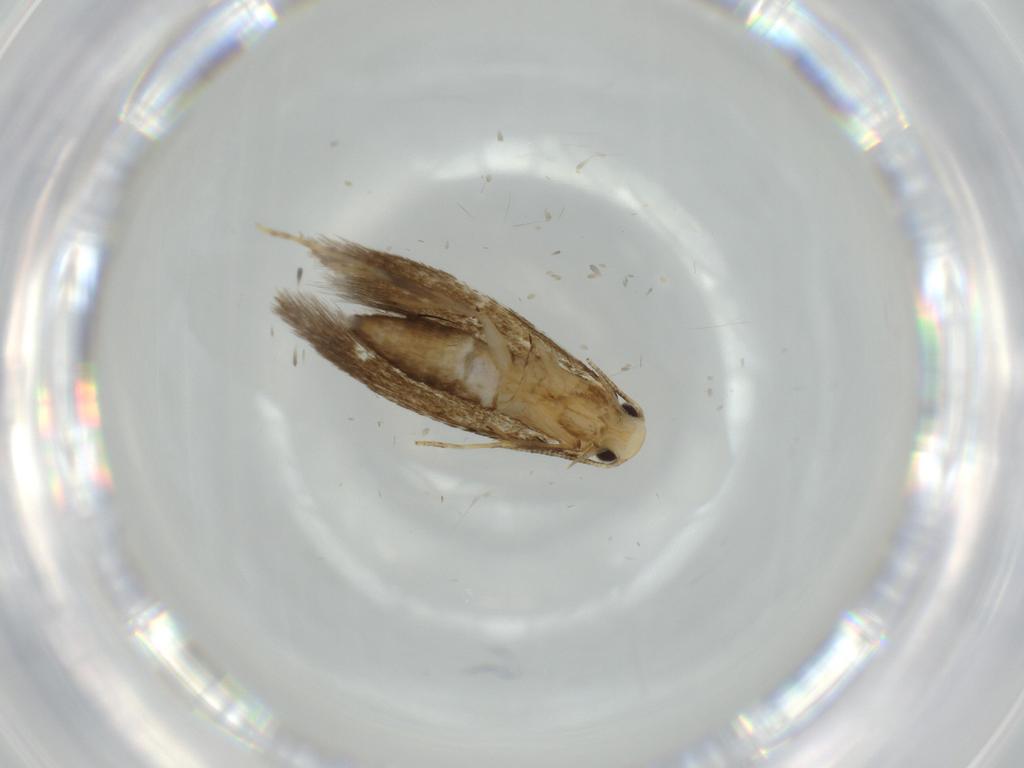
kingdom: Animalia
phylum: Arthropoda
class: Insecta
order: Lepidoptera
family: Tineidae
